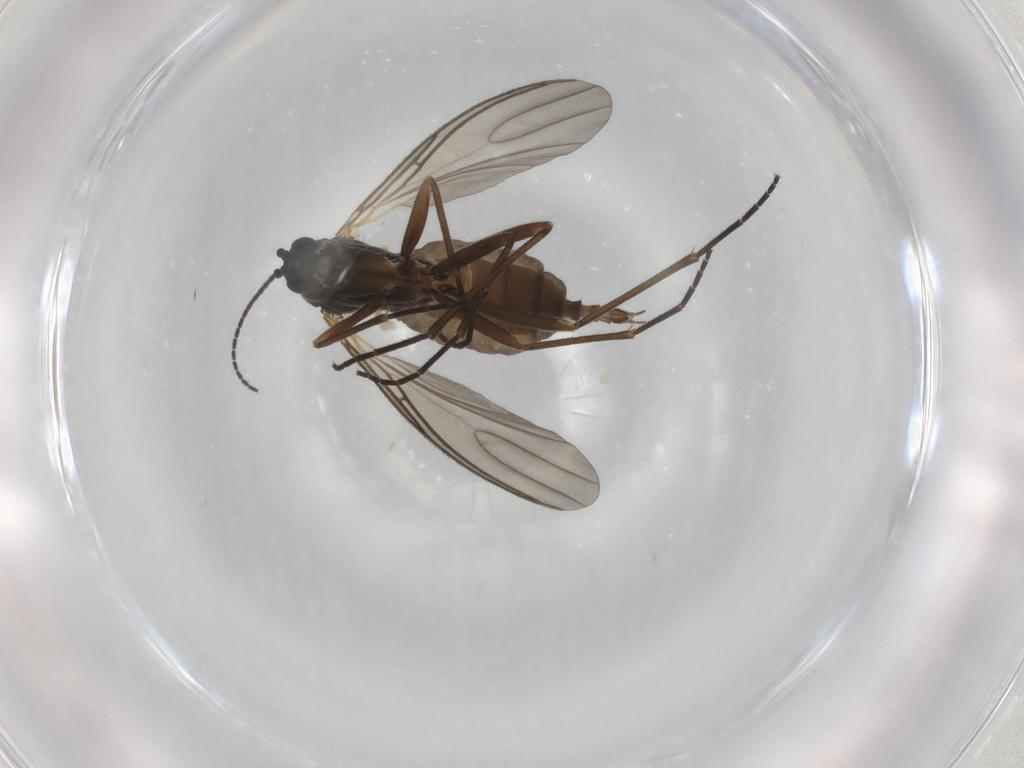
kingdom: Animalia
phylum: Arthropoda
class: Insecta
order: Diptera
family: Sciaridae
